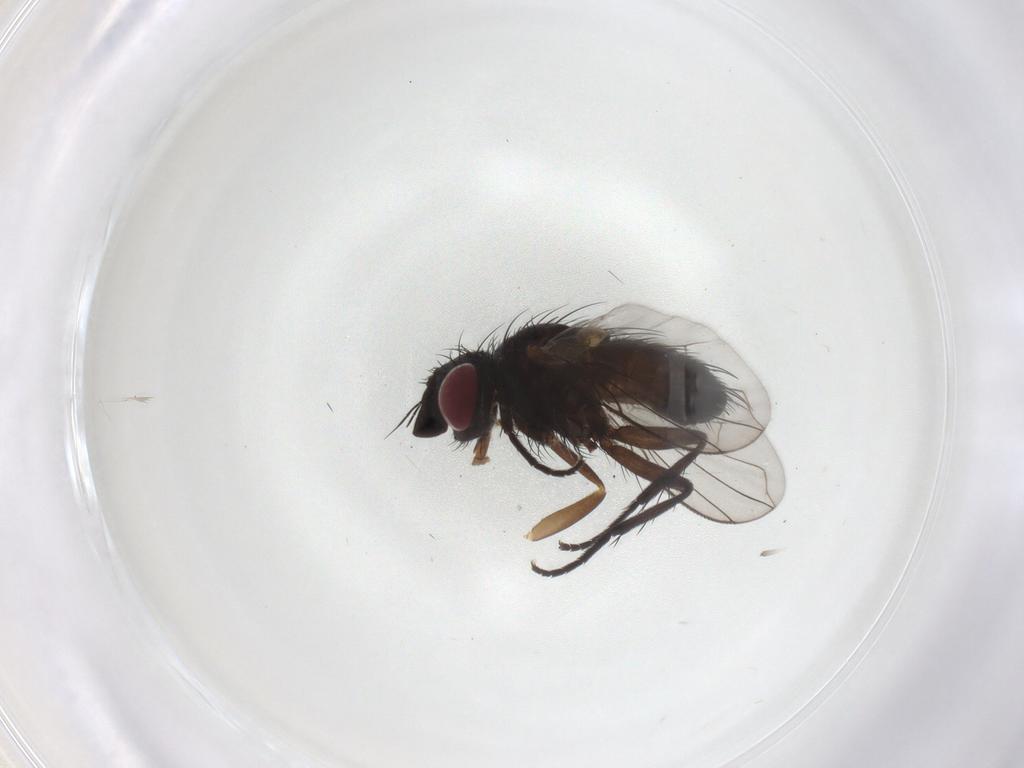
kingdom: Animalia
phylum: Arthropoda
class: Insecta
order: Diptera
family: Tachinidae
